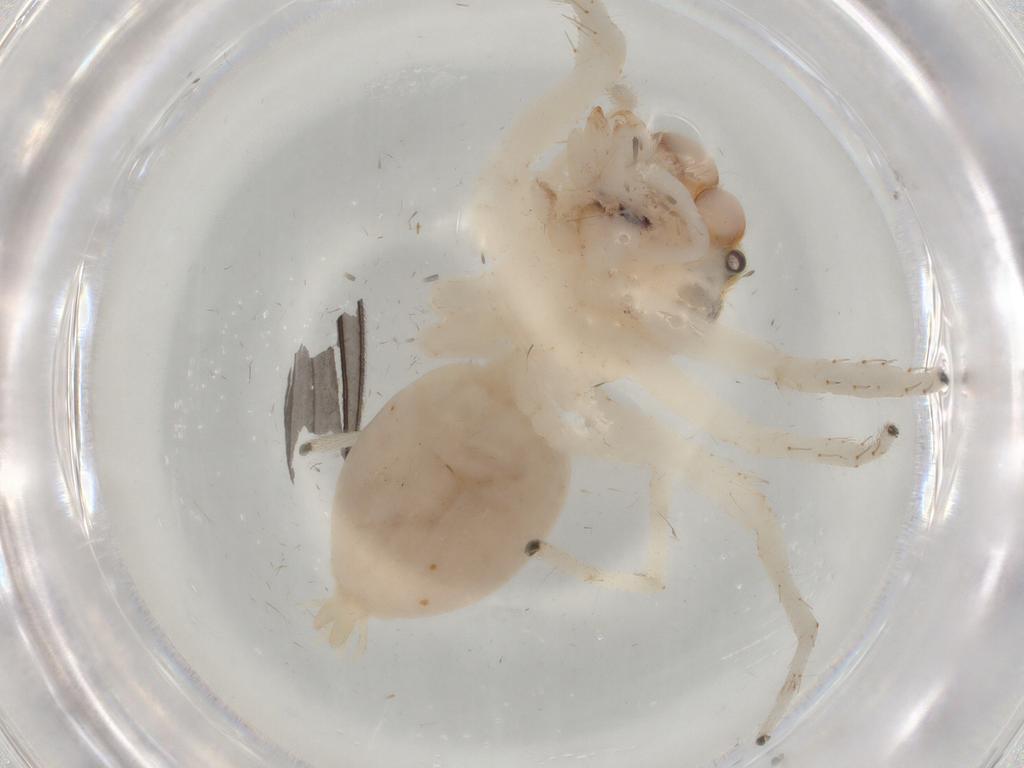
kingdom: Animalia
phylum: Arthropoda
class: Arachnida
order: Araneae
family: Salticidae
